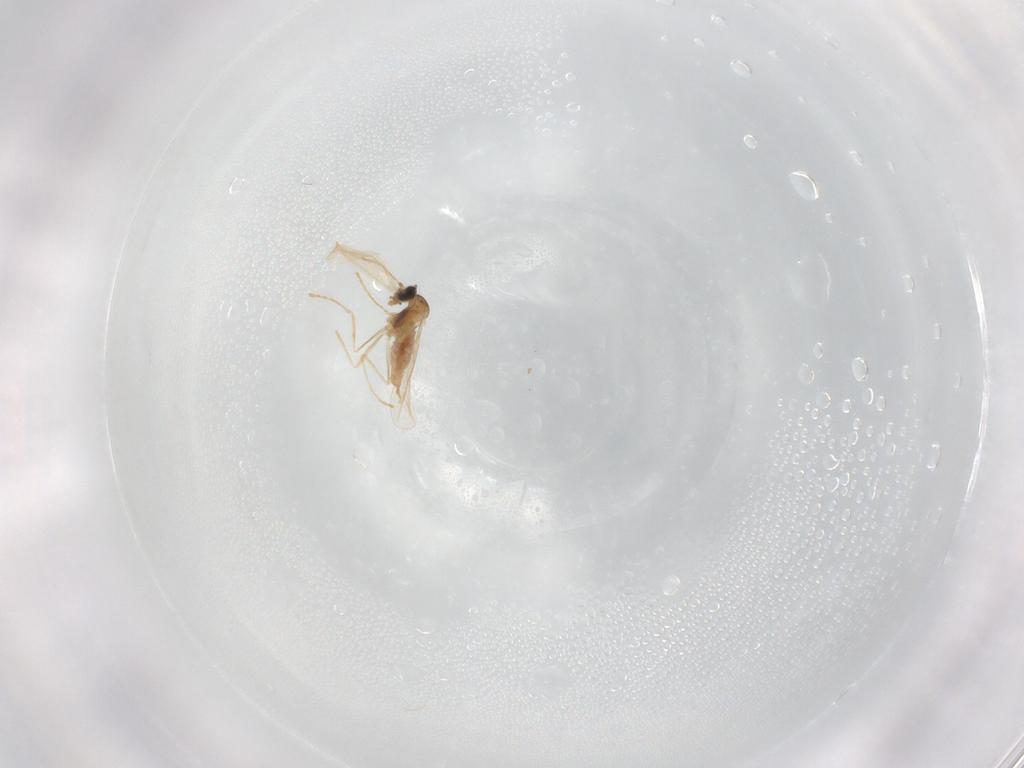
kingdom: Animalia
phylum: Arthropoda
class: Insecta
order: Diptera
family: Cecidomyiidae
